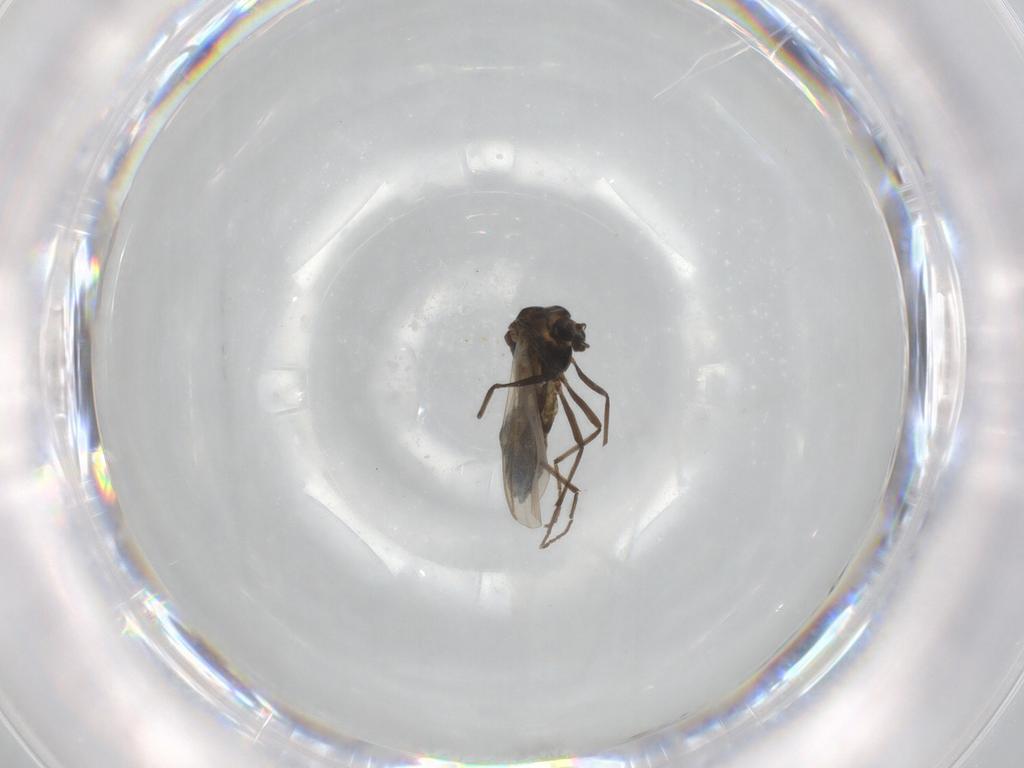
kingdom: Animalia
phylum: Arthropoda
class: Insecta
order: Diptera
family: Chironomidae
